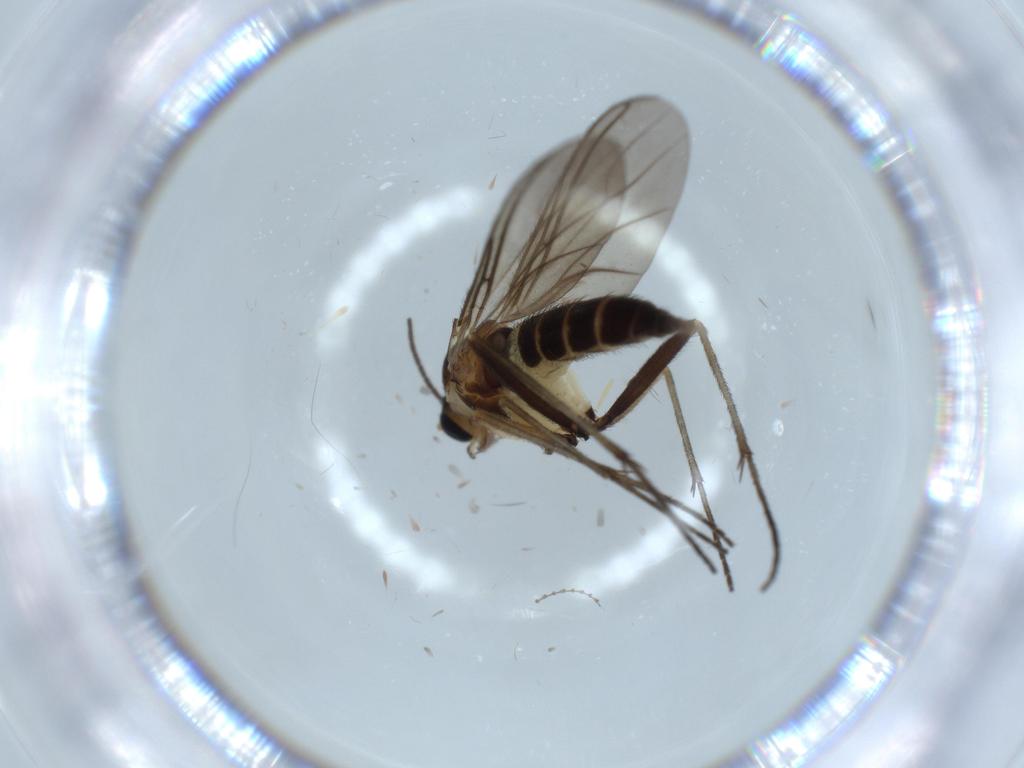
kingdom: Animalia
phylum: Arthropoda
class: Insecta
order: Diptera
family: Cecidomyiidae
